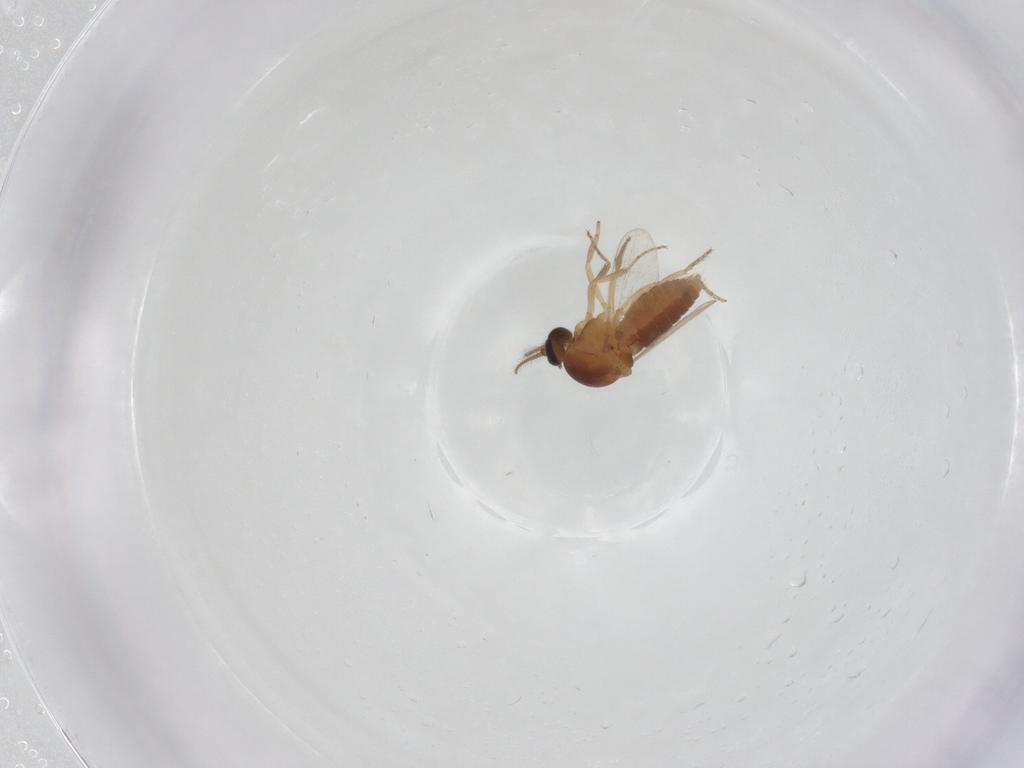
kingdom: Animalia
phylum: Arthropoda
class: Insecta
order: Diptera
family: Ceratopogonidae
